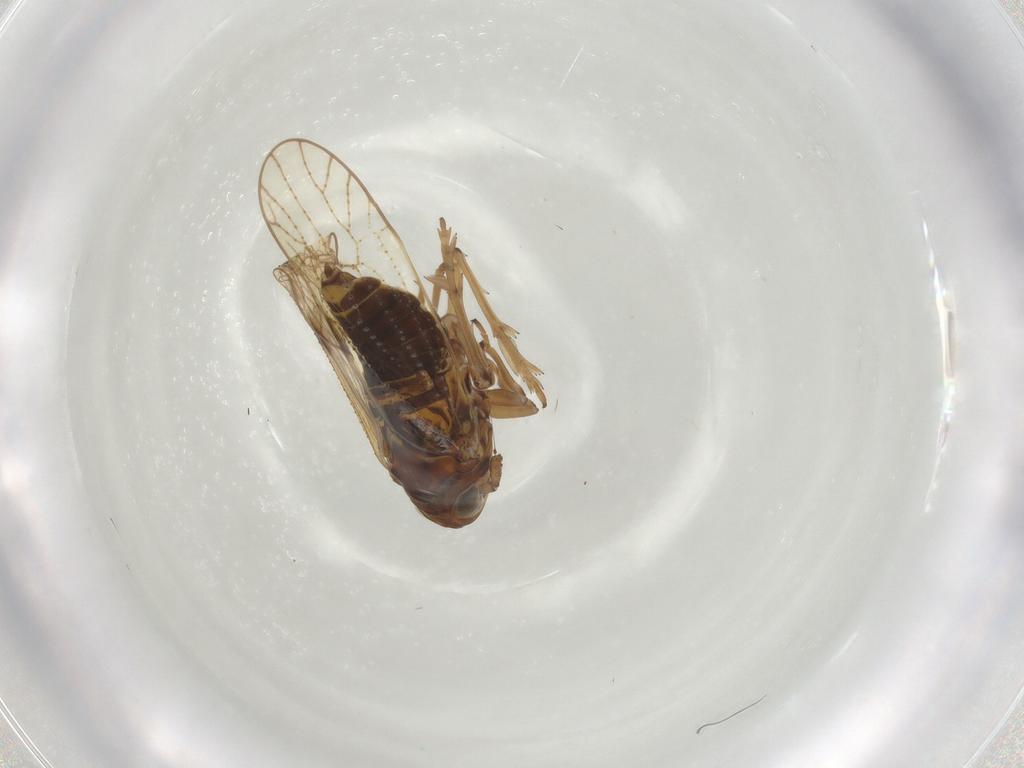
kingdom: Animalia
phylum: Arthropoda
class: Insecta
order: Hemiptera
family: Delphacidae
